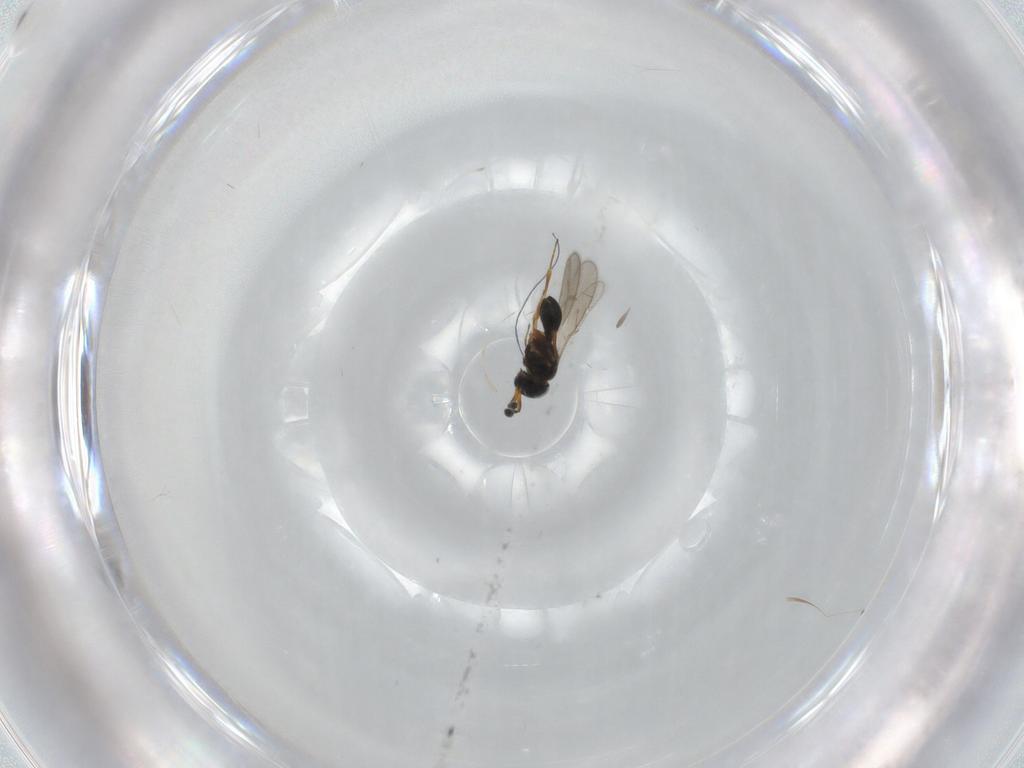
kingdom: Animalia
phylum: Arthropoda
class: Insecta
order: Hymenoptera
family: Scelionidae
